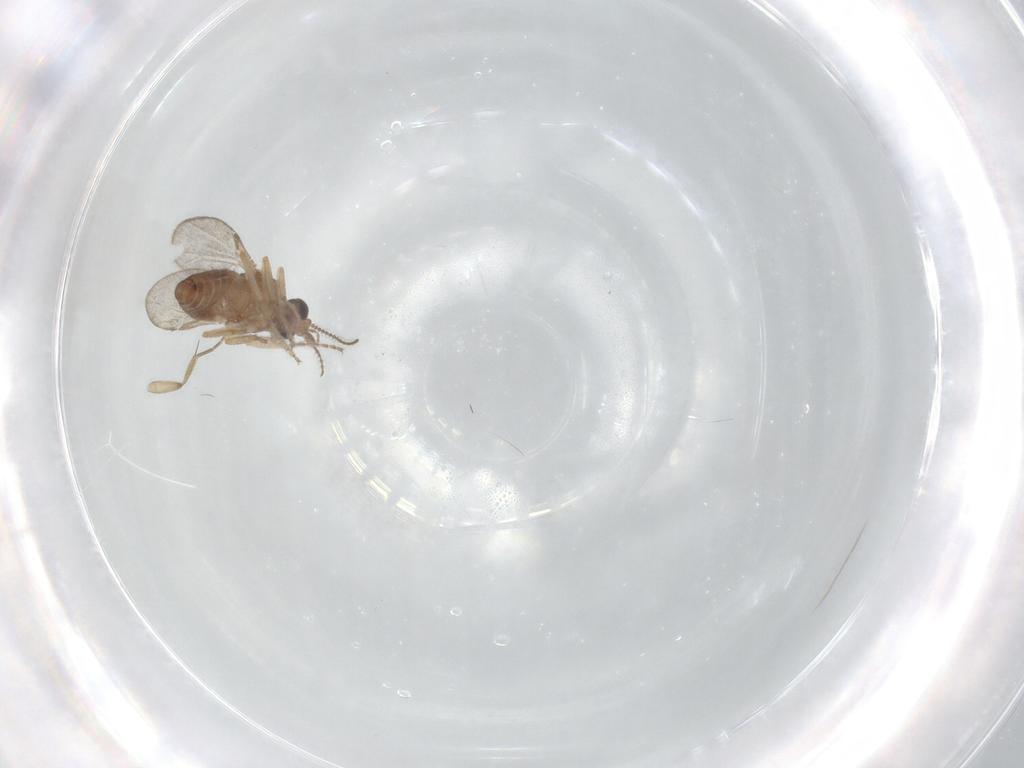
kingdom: Animalia
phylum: Arthropoda
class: Insecta
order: Diptera
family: Ceratopogonidae
